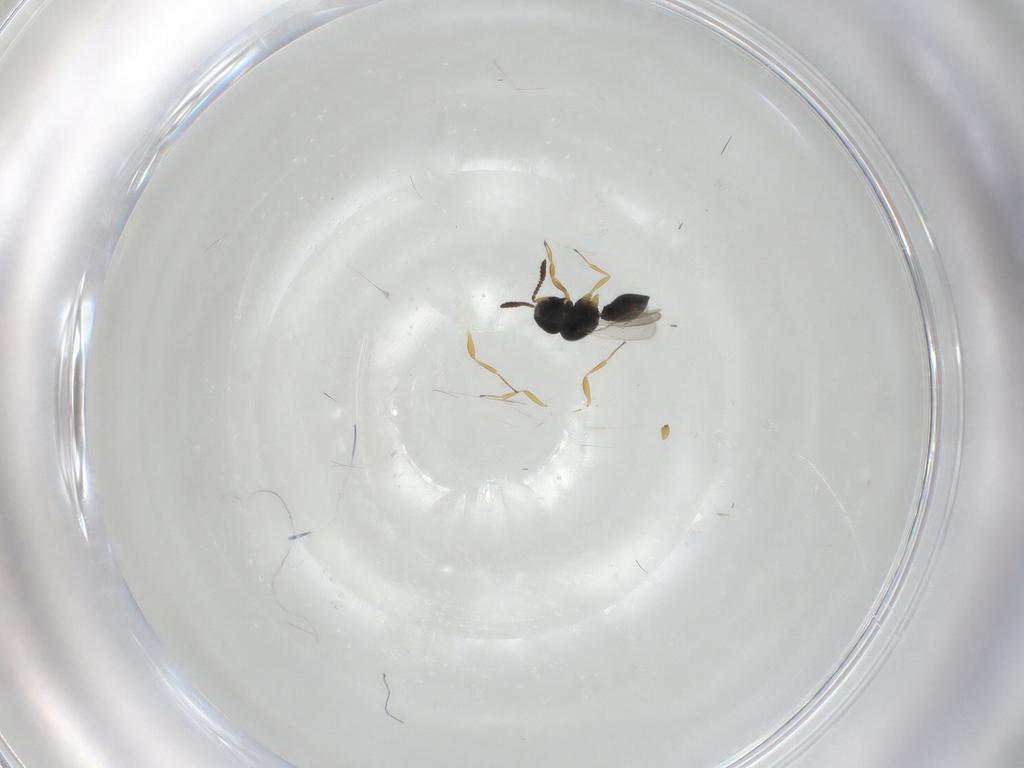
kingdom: Animalia
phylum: Arthropoda
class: Insecta
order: Hymenoptera
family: Scelionidae
